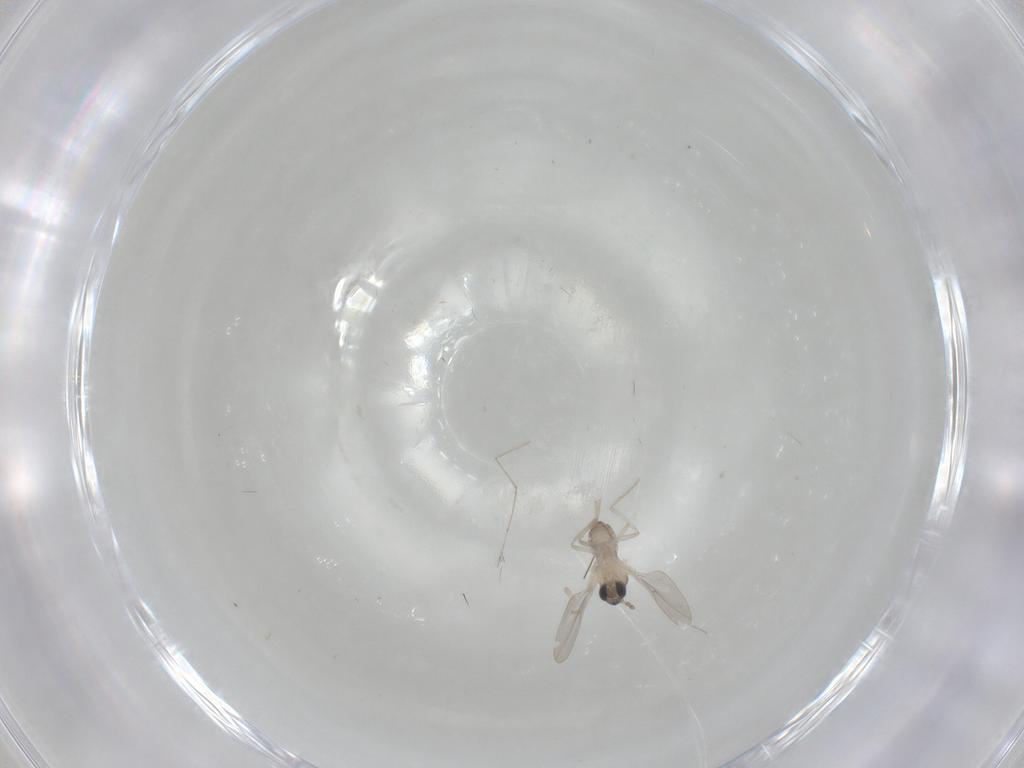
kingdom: Animalia
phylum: Arthropoda
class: Insecta
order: Diptera
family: Cecidomyiidae
